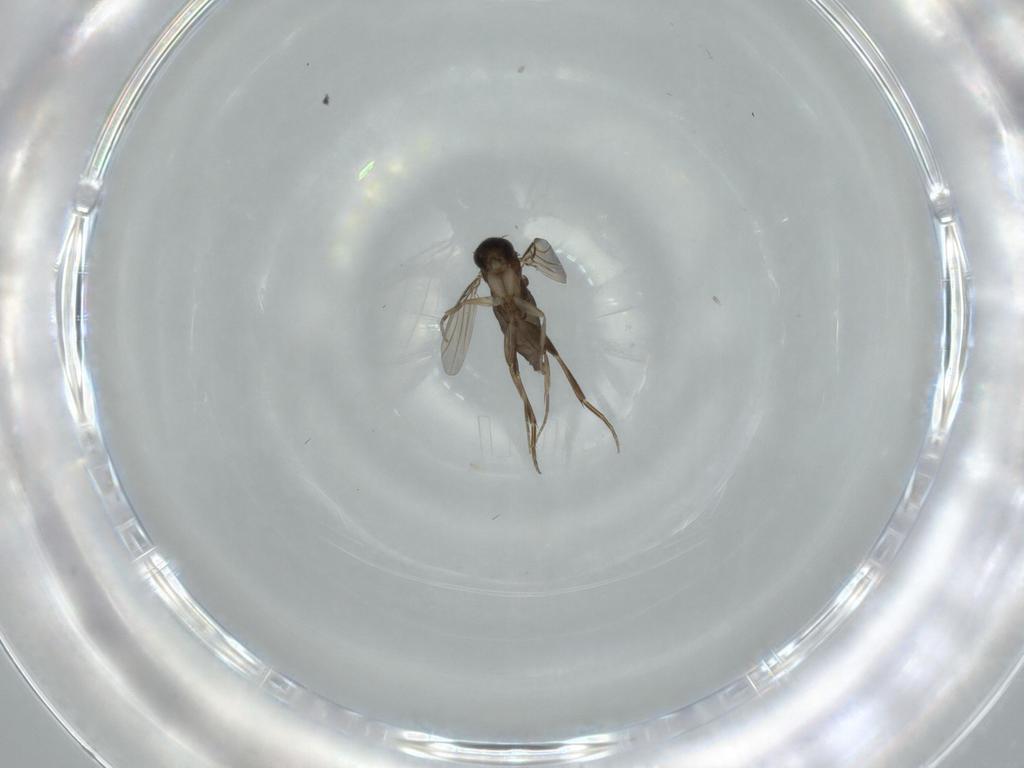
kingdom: Animalia
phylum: Arthropoda
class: Insecta
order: Diptera
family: Phoridae
